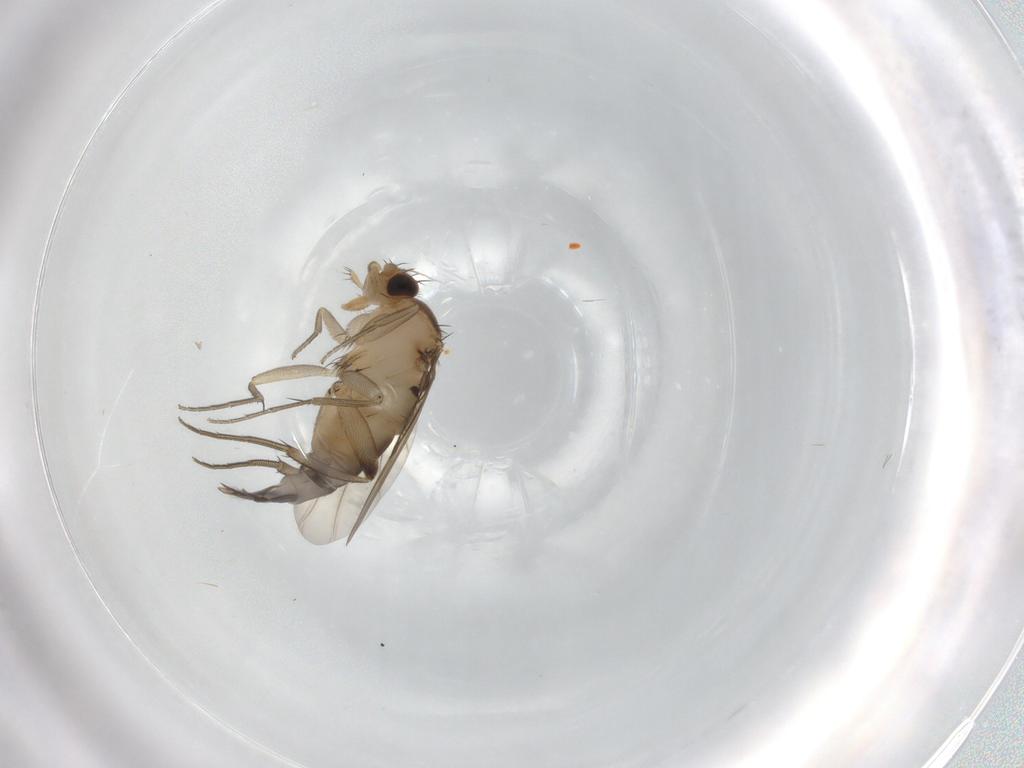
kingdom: Animalia
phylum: Arthropoda
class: Insecta
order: Diptera
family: Phoridae
